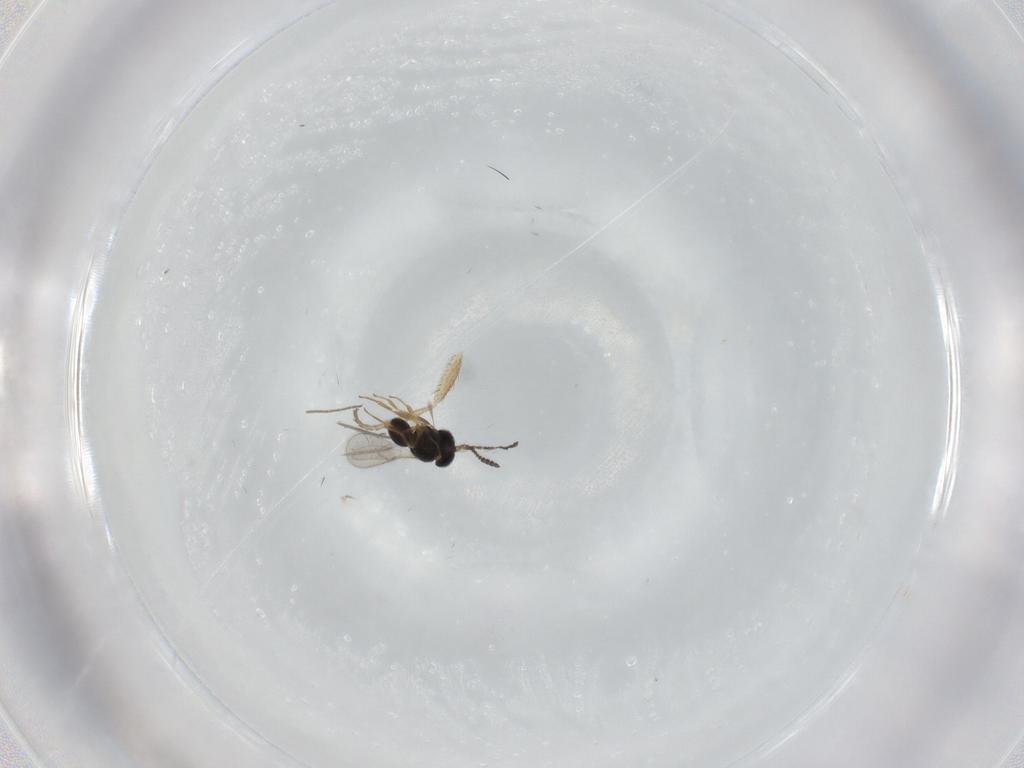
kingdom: Animalia
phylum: Arthropoda
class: Insecta
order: Hymenoptera
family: Scelionidae
